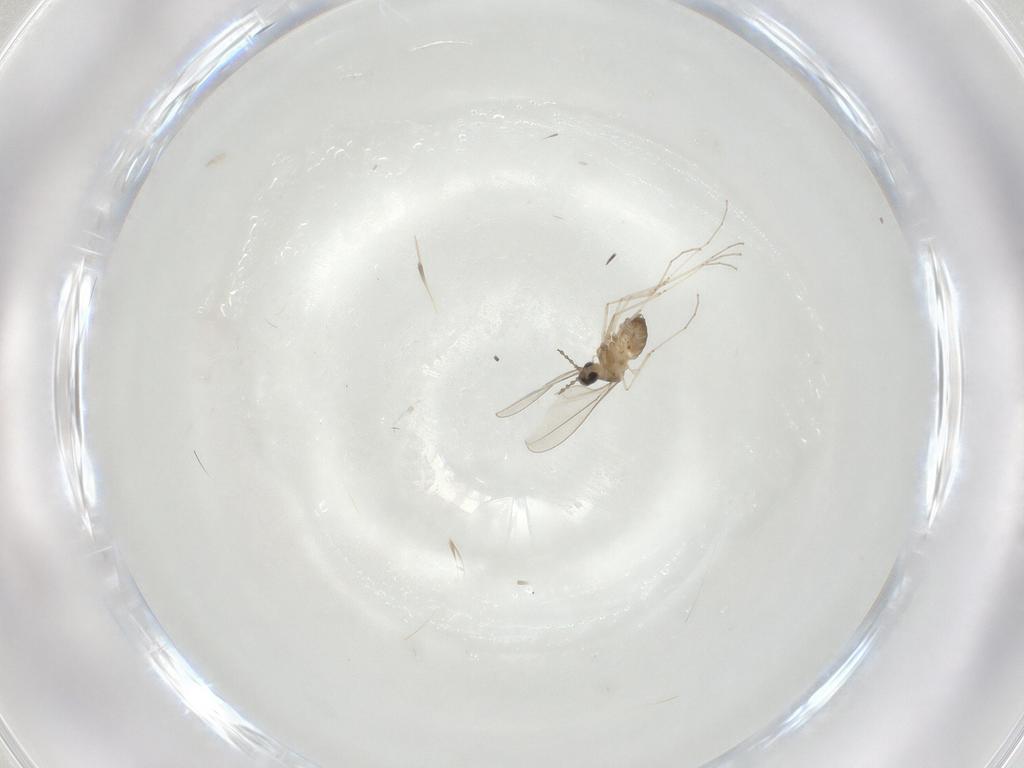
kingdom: Animalia
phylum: Arthropoda
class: Insecta
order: Diptera
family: Cecidomyiidae
